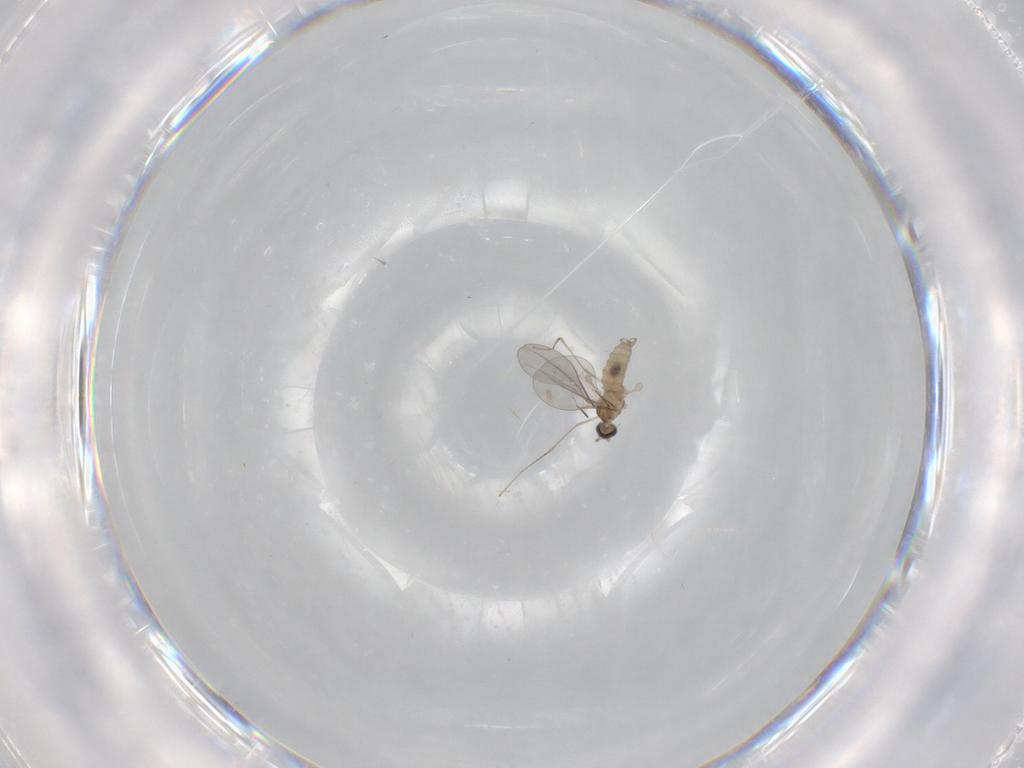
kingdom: Animalia
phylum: Arthropoda
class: Insecta
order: Diptera
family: Cecidomyiidae
